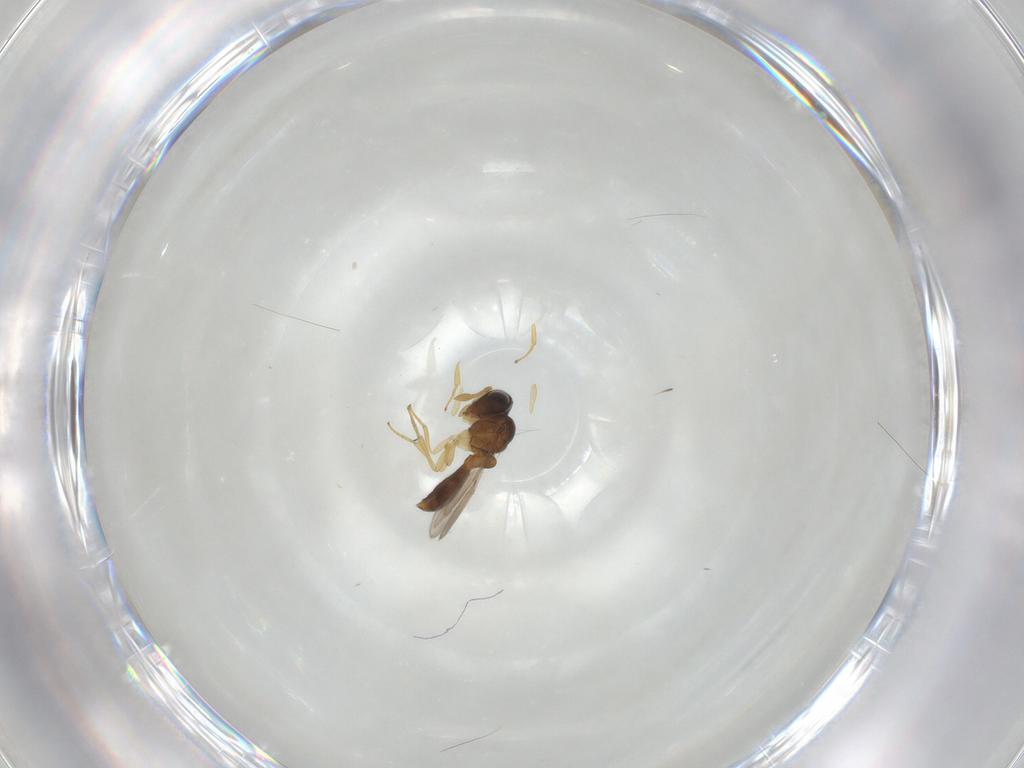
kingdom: Animalia
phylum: Arthropoda
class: Insecta
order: Hymenoptera
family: Scelionidae
